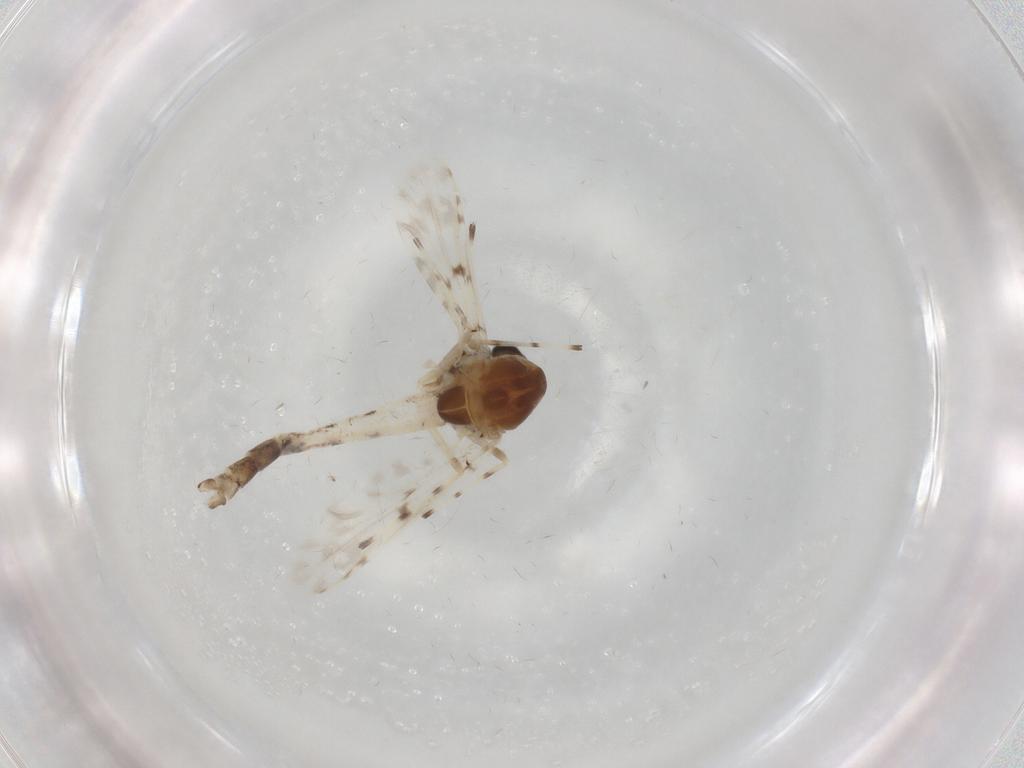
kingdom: Animalia
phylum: Arthropoda
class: Insecta
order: Diptera
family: Chironomidae
